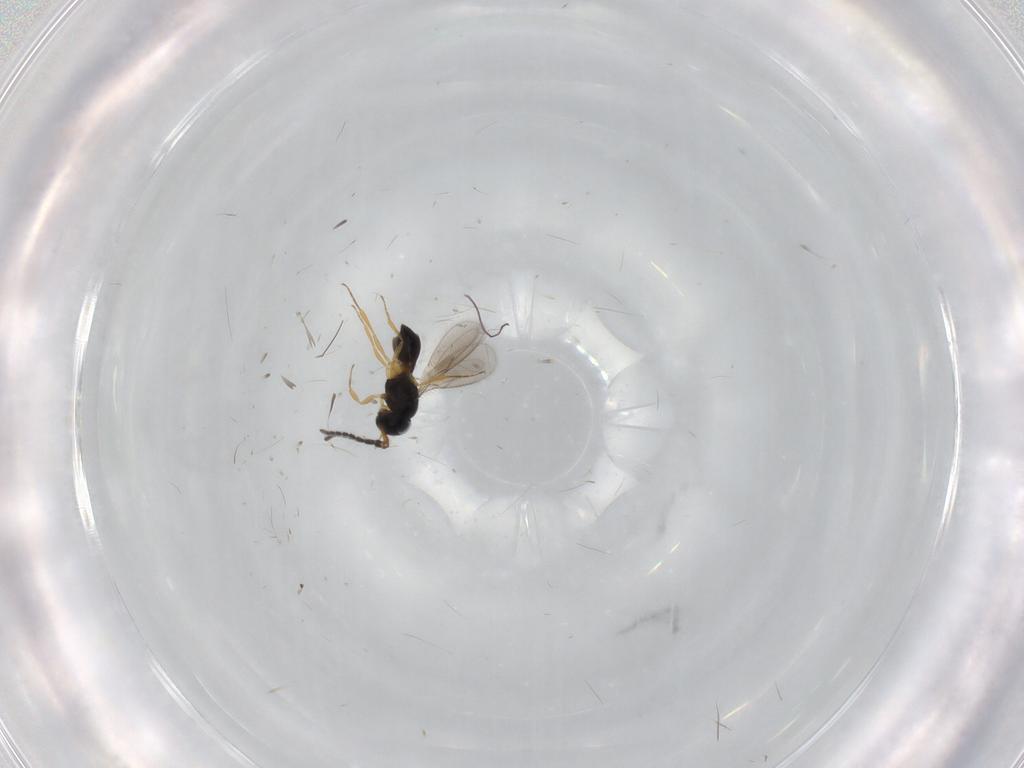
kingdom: Animalia
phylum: Arthropoda
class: Insecta
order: Hymenoptera
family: Scelionidae
